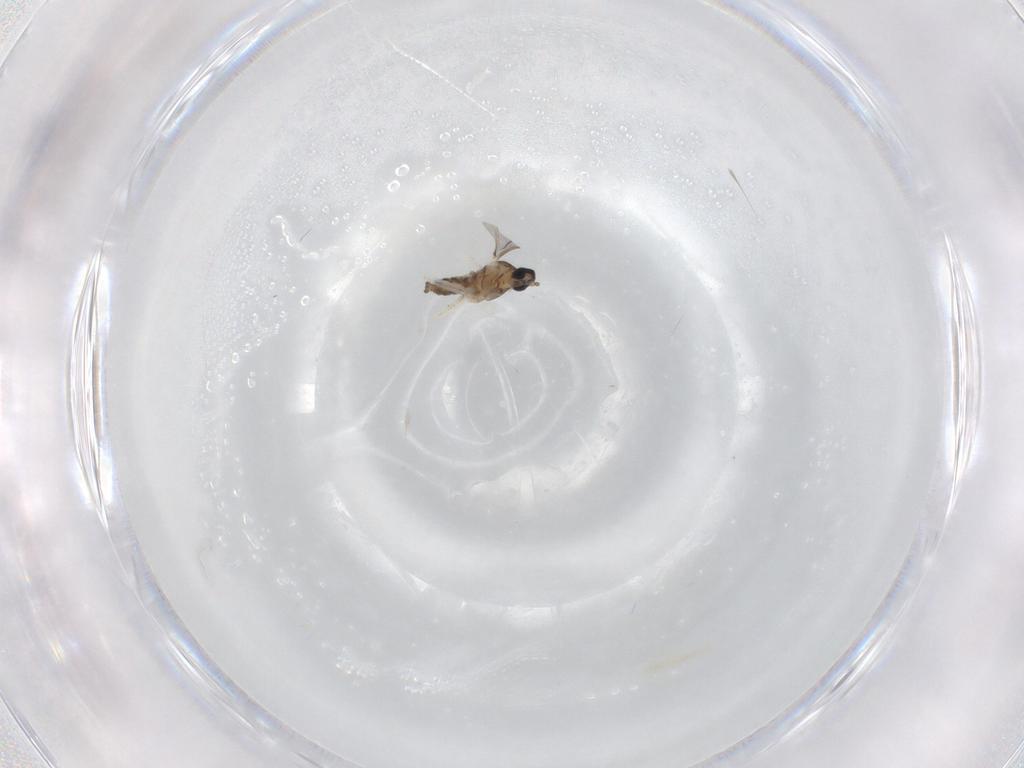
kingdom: Animalia
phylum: Arthropoda
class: Insecta
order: Diptera
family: Cecidomyiidae
